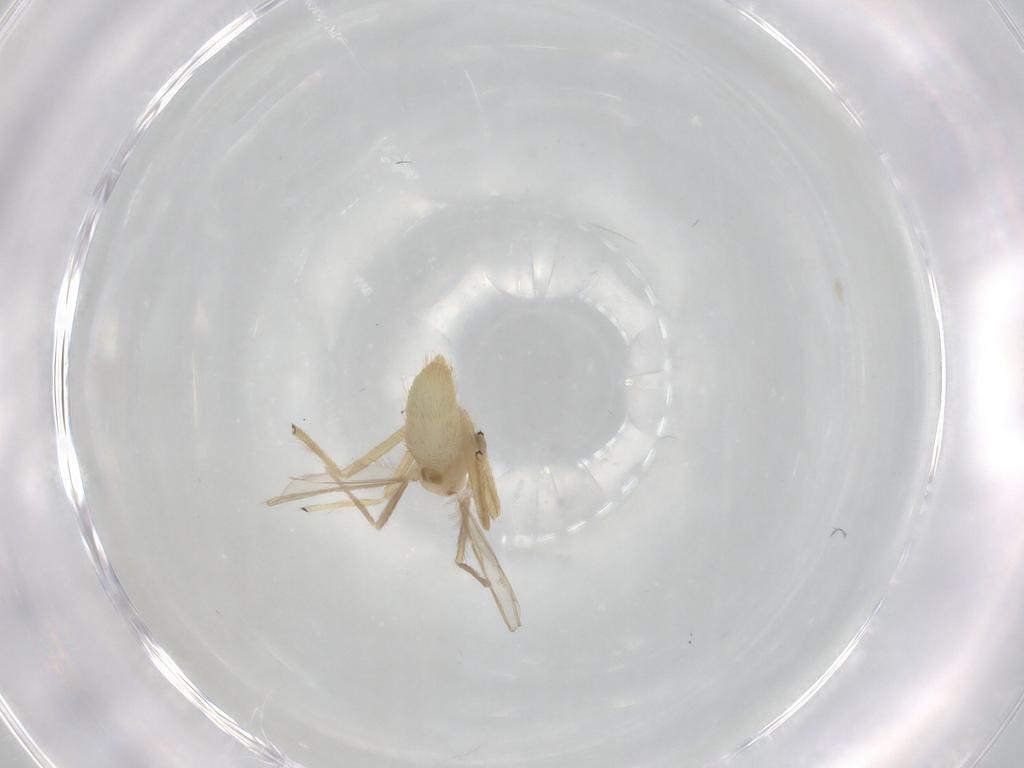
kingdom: Animalia
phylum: Arthropoda
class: Insecta
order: Diptera
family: Chironomidae
